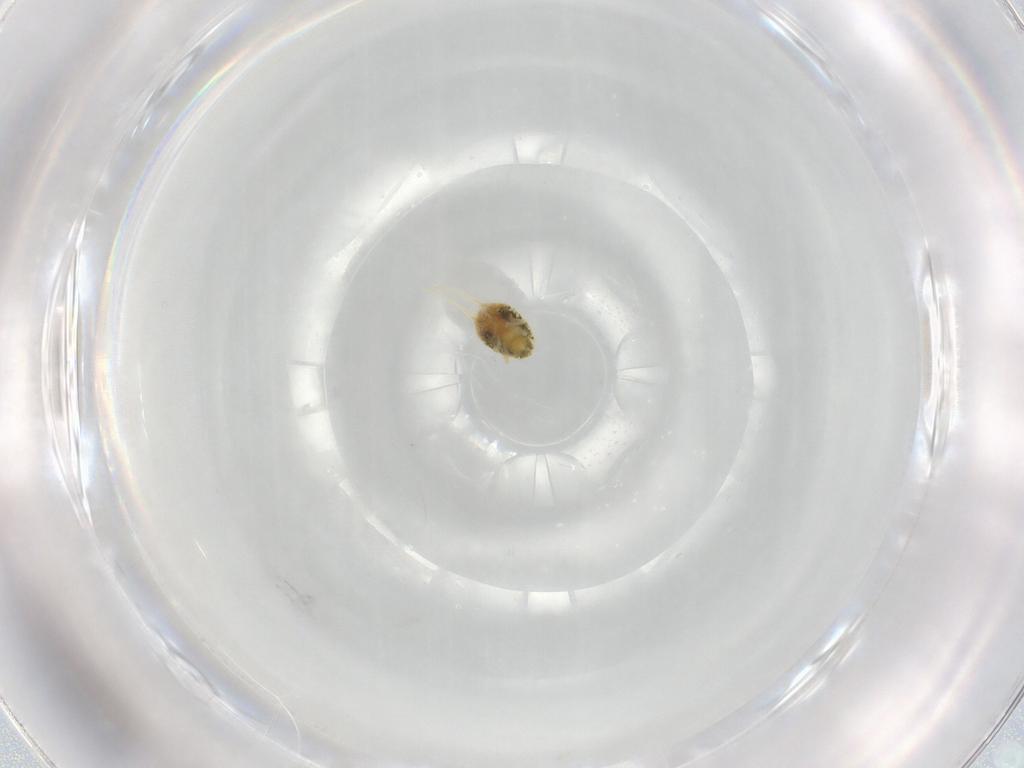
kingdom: Animalia
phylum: Arthropoda
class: Arachnida
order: Trombidiformes
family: Tetranychidae
